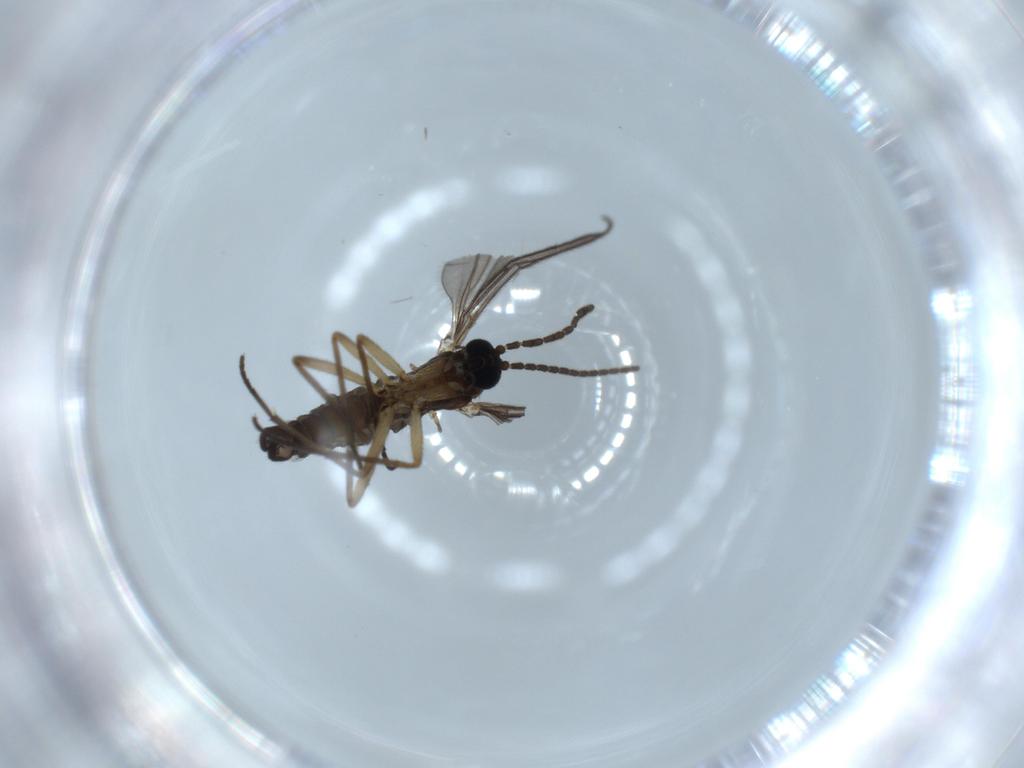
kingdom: Animalia
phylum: Arthropoda
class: Insecta
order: Diptera
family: Sciaridae
